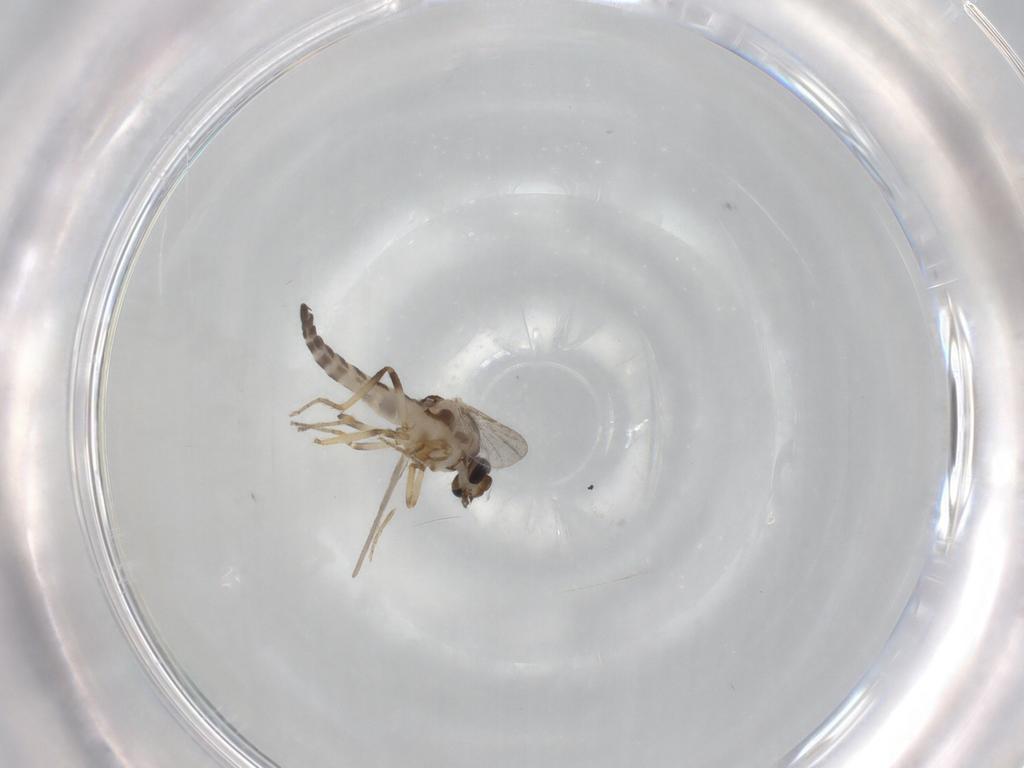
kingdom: Animalia
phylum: Arthropoda
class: Insecta
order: Diptera
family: Ceratopogonidae
